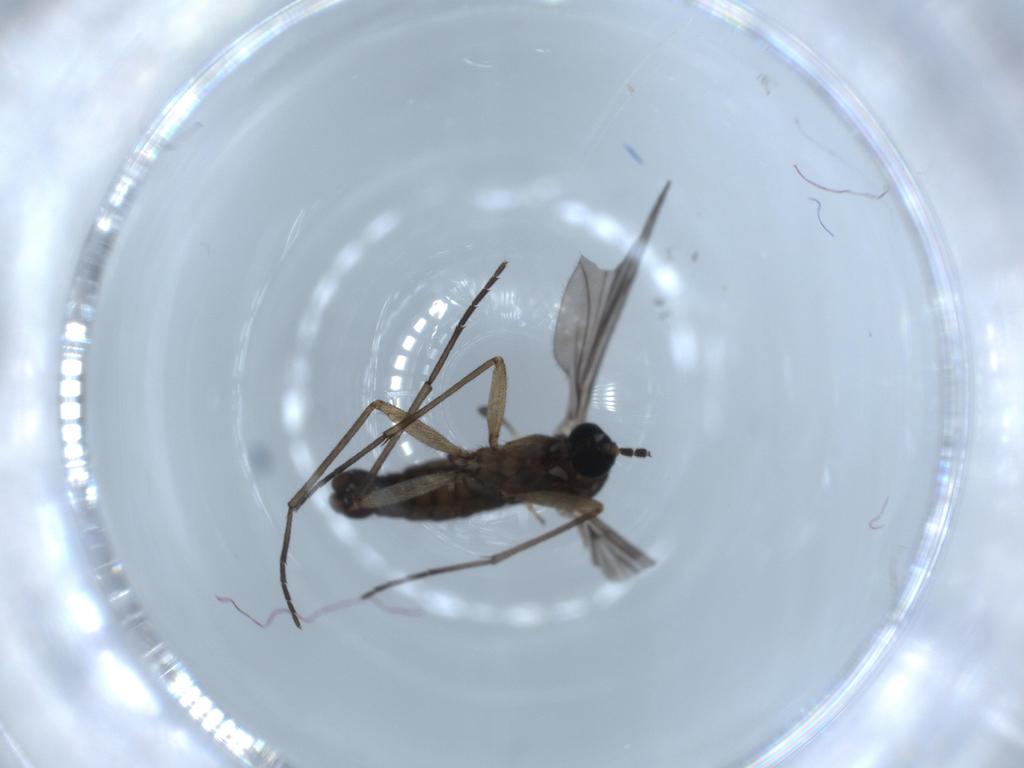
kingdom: Animalia
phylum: Arthropoda
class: Insecta
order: Diptera
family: Sciaridae
